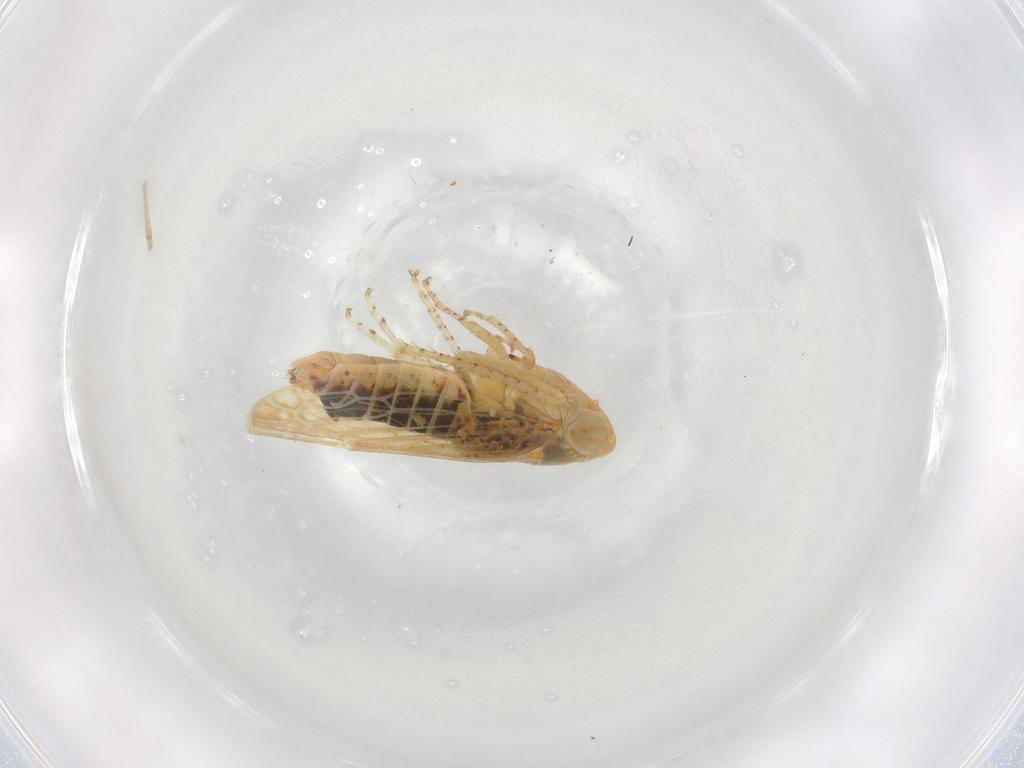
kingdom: Animalia
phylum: Arthropoda
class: Insecta
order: Hemiptera
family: Cicadellidae
